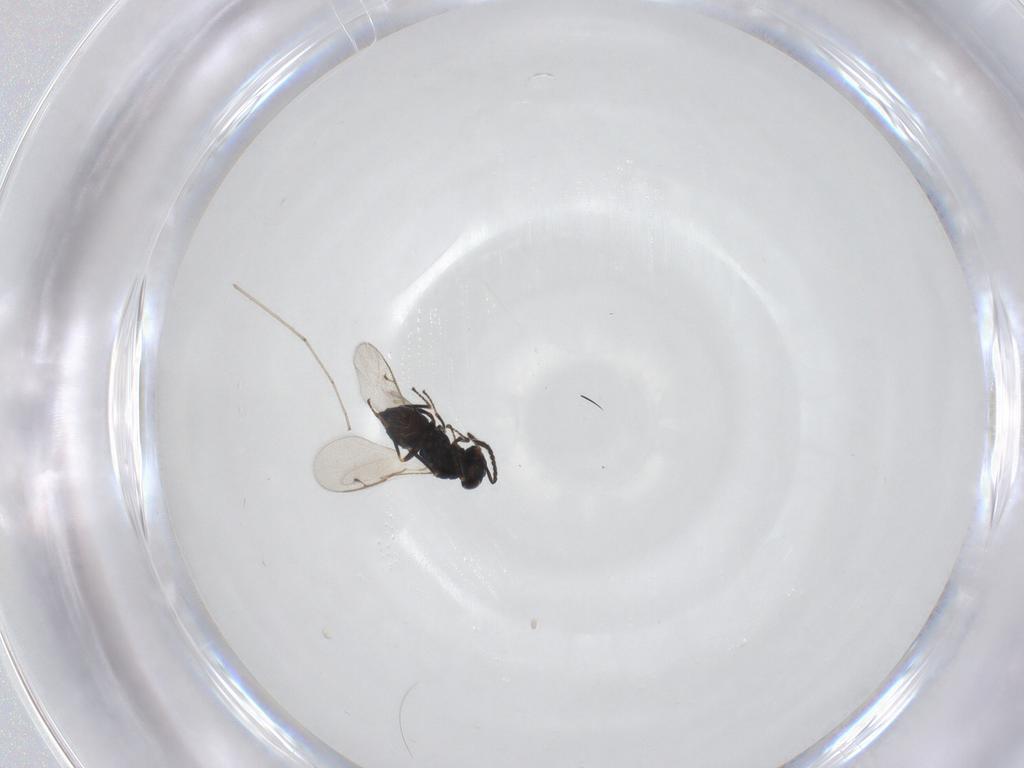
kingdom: Animalia
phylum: Arthropoda
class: Insecta
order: Hymenoptera
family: Pteromalidae
